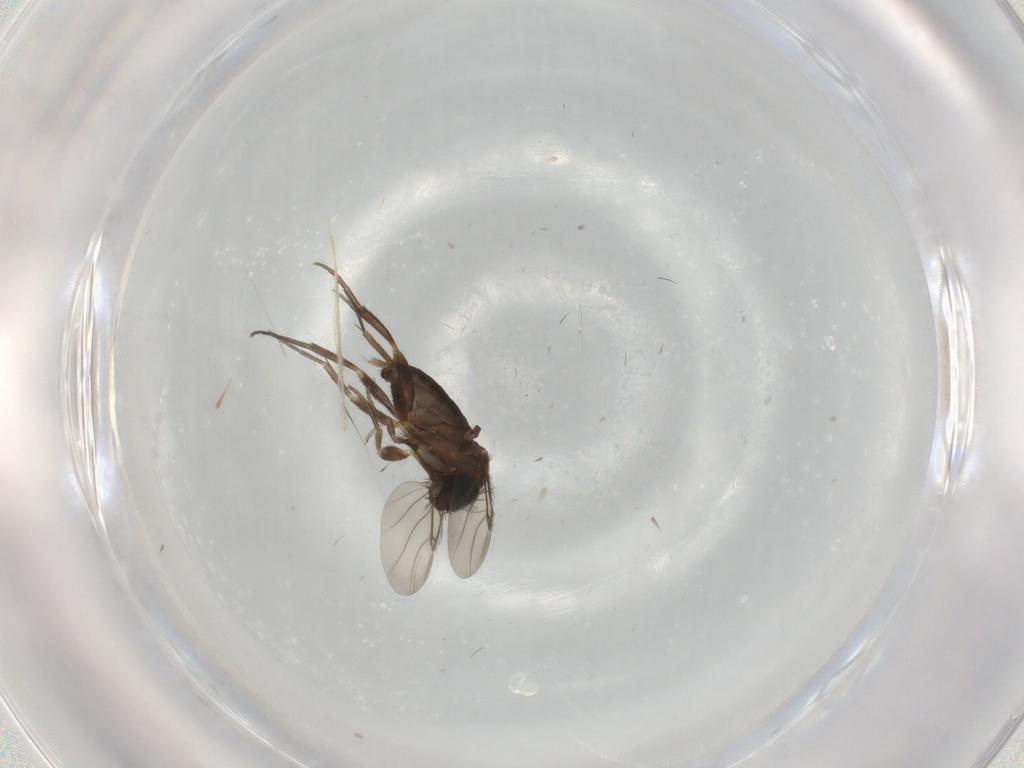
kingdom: Animalia
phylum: Arthropoda
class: Insecta
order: Diptera
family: Phoridae
